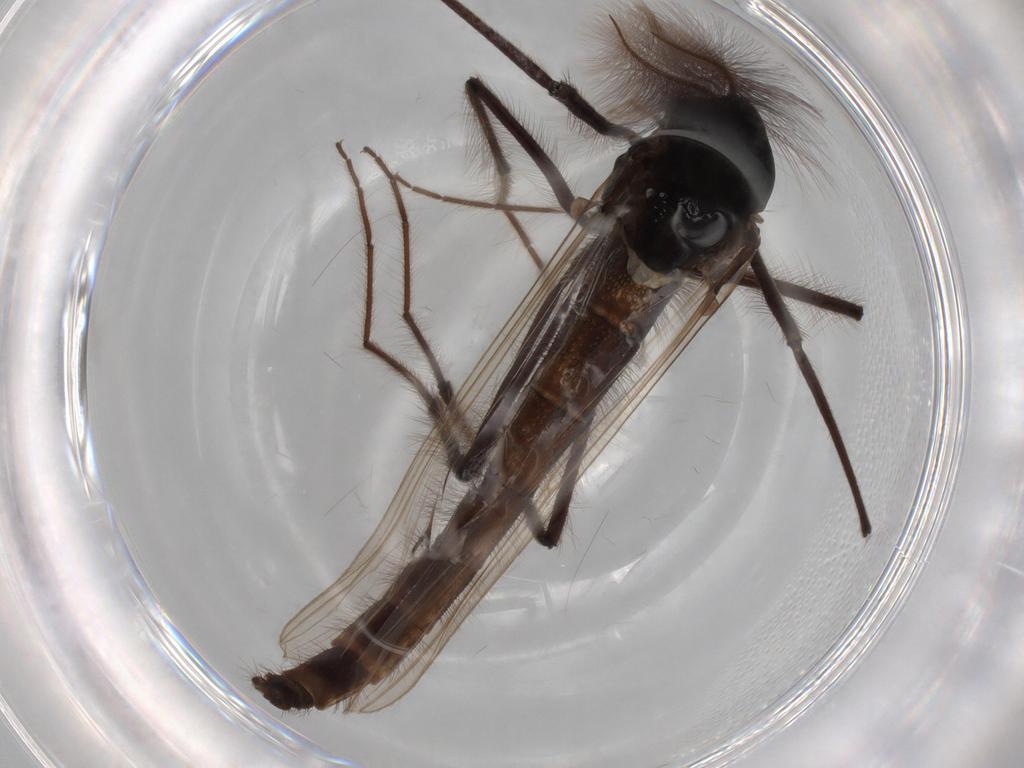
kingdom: Animalia
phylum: Arthropoda
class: Insecta
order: Diptera
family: Chironomidae
